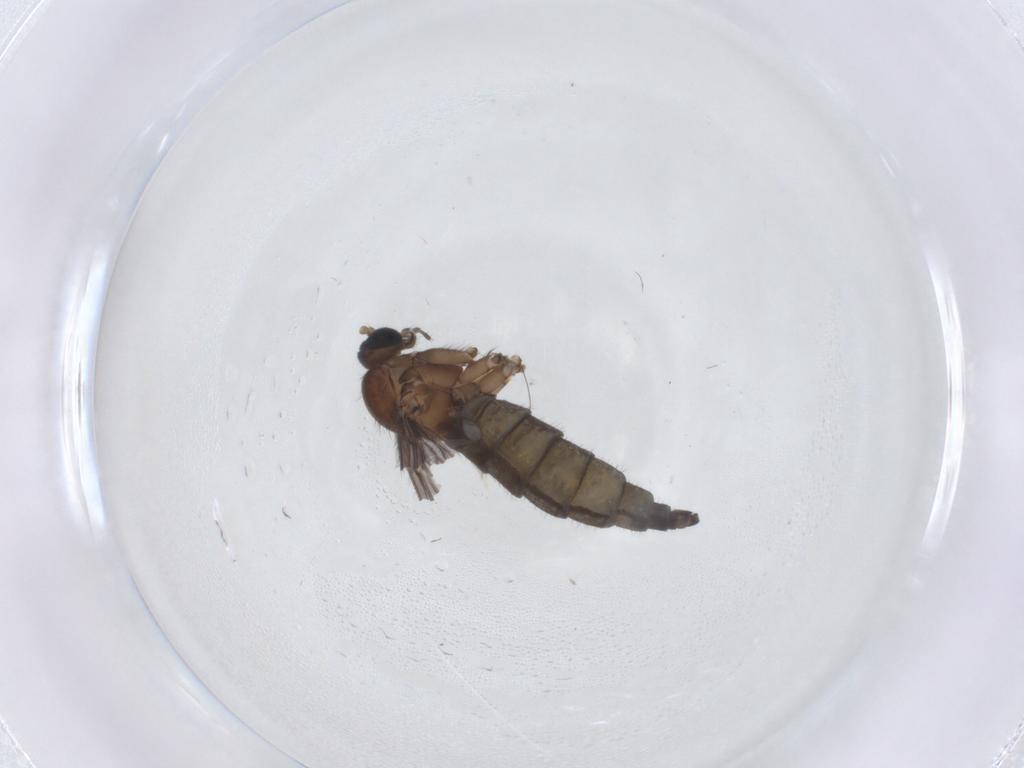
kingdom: Animalia
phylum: Arthropoda
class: Insecta
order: Diptera
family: Sciaridae
